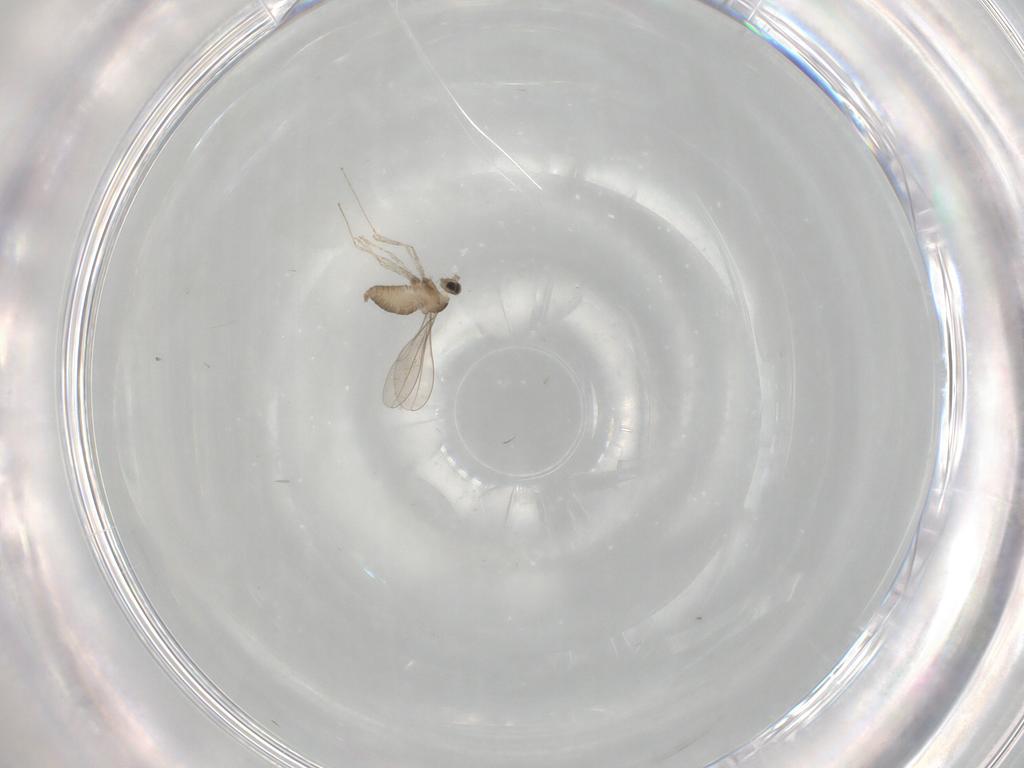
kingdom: Animalia
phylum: Arthropoda
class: Insecta
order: Diptera
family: Cecidomyiidae
